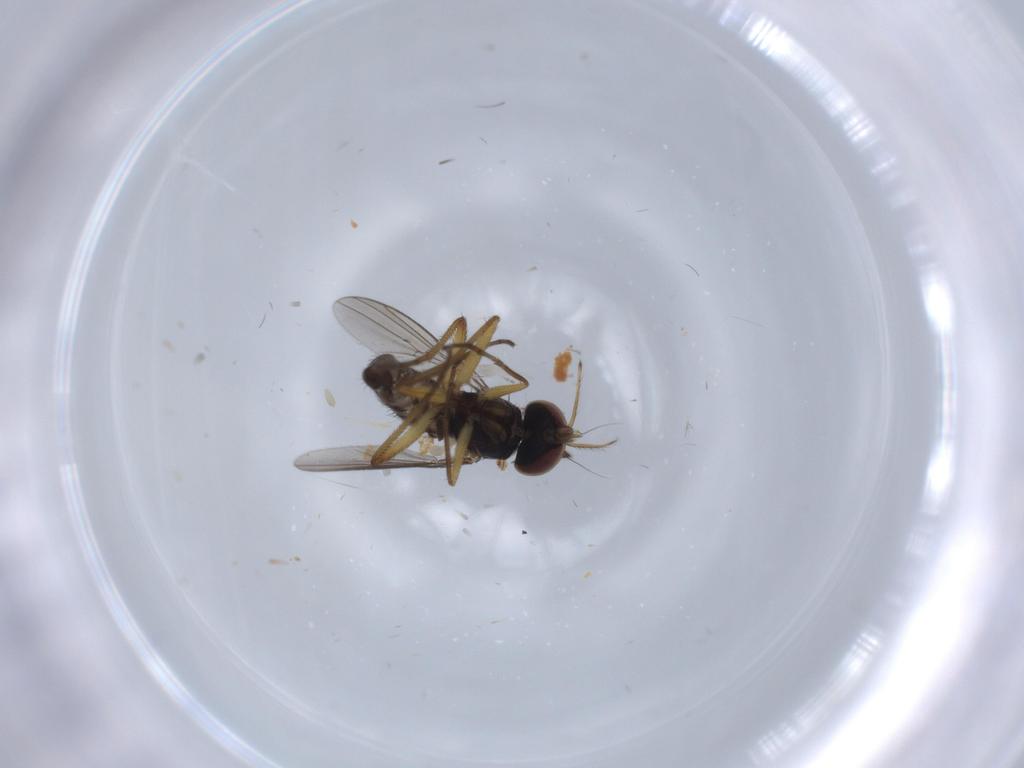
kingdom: Animalia
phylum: Arthropoda
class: Insecta
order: Diptera
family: Dolichopodidae
